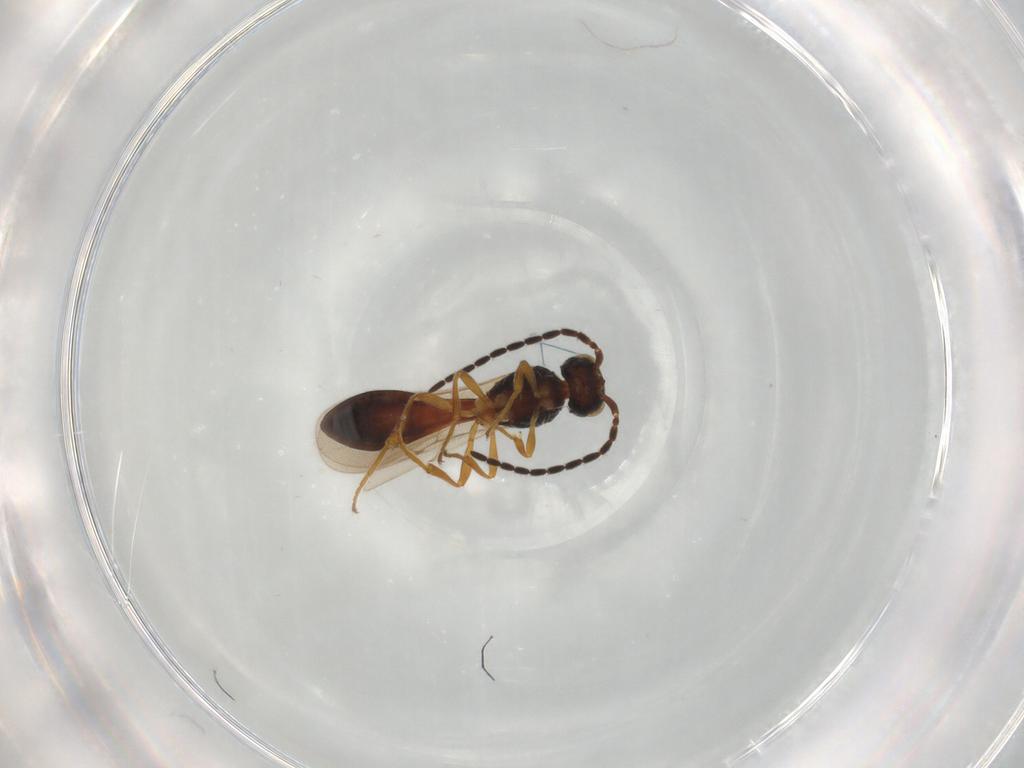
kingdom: Animalia
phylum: Arthropoda
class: Insecta
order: Hymenoptera
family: Scelionidae
